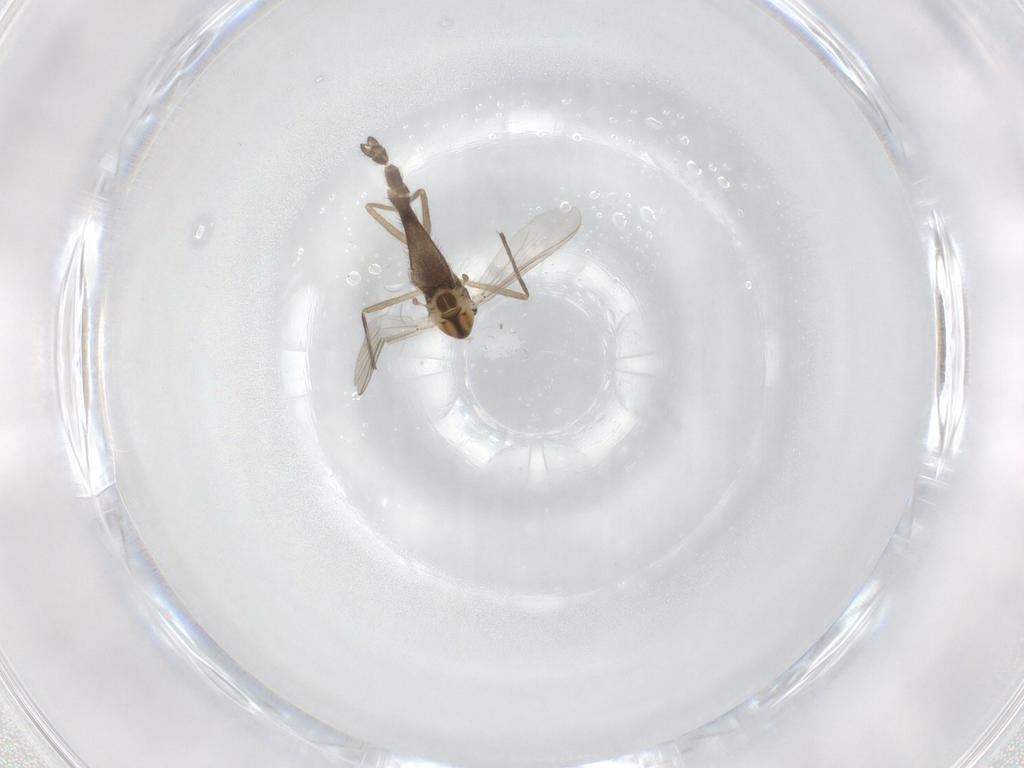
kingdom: Animalia
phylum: Arthropoda
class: Insecta
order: Diptera
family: Chironomidae
